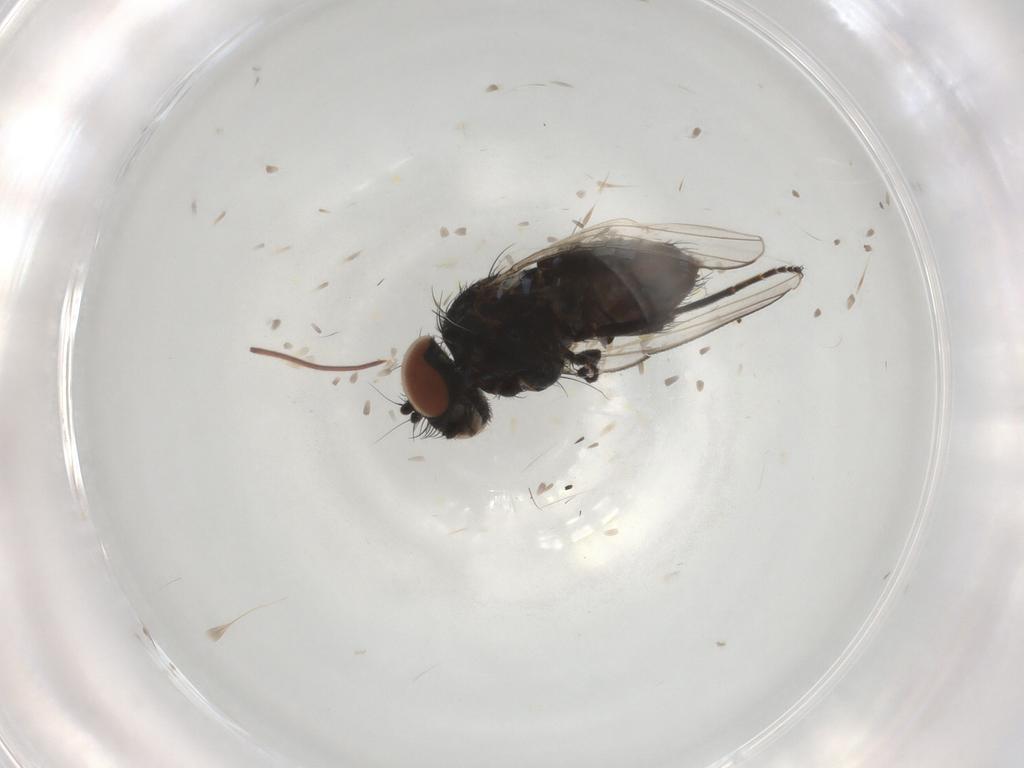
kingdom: Animalia
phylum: Arthropoda
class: Insecta
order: Diptera
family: Milichiidae
